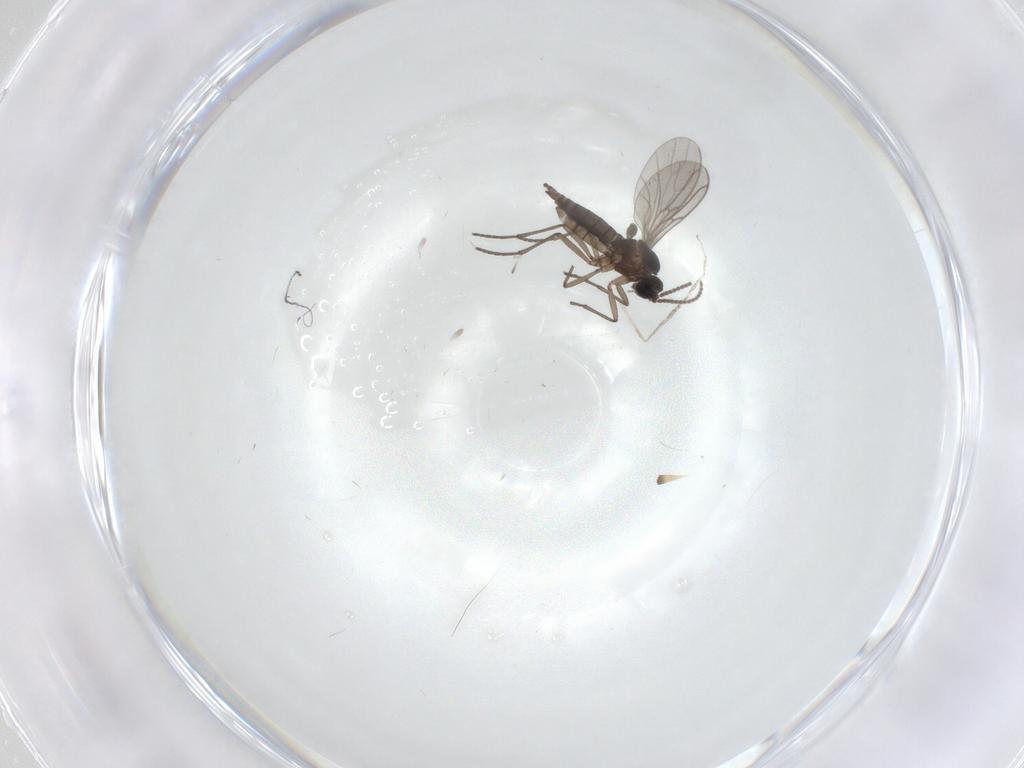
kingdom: Animalia
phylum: Arthropoda
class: Insecta
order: Diptera
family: Sciaridae
